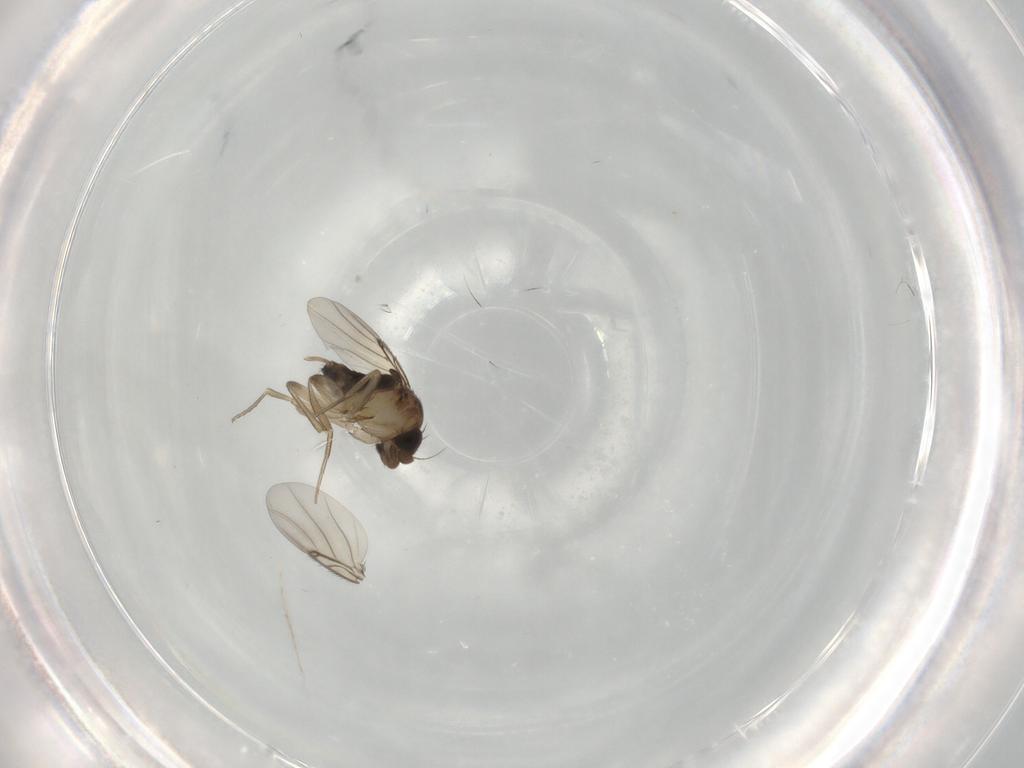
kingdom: Animalia
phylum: Arthropoda
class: Insecta
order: Diptera
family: Phoridae
